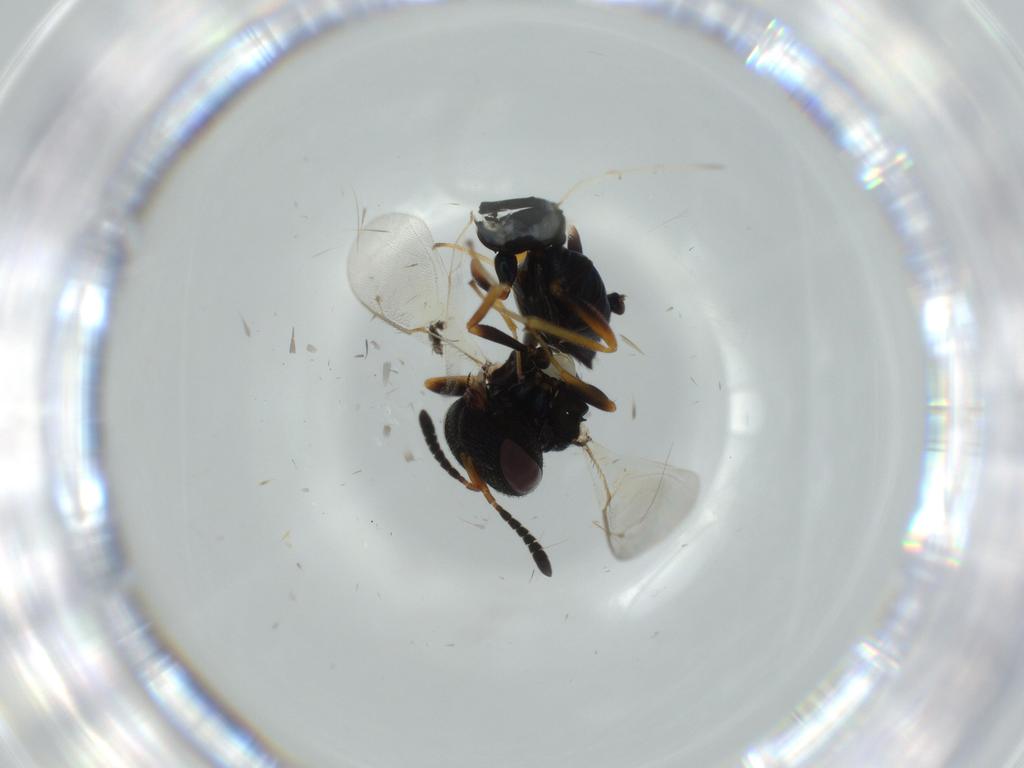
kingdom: Animalia
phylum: Arthropoda
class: Insecta
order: Hymenoptera
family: Pteromalidae
